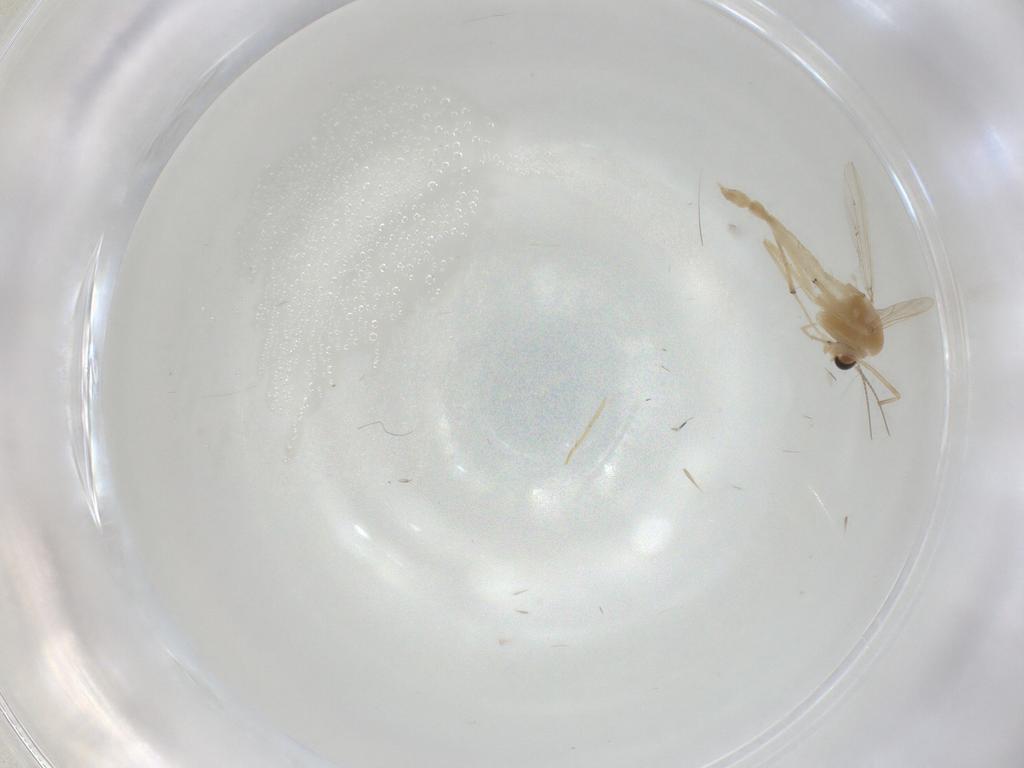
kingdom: Animalia
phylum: Arthropoda
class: Insecta
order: Diptera
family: Chironomidae
